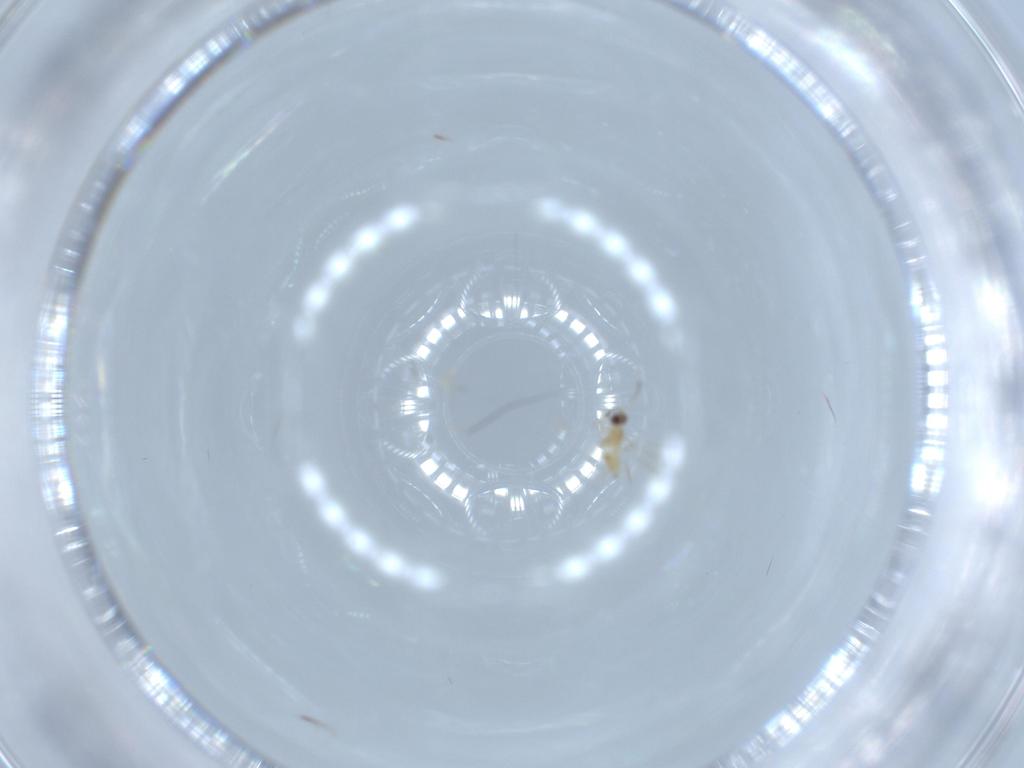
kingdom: Animalia
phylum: Arthropoda
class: Insecta
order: Hymenoptera
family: Mymaridae
